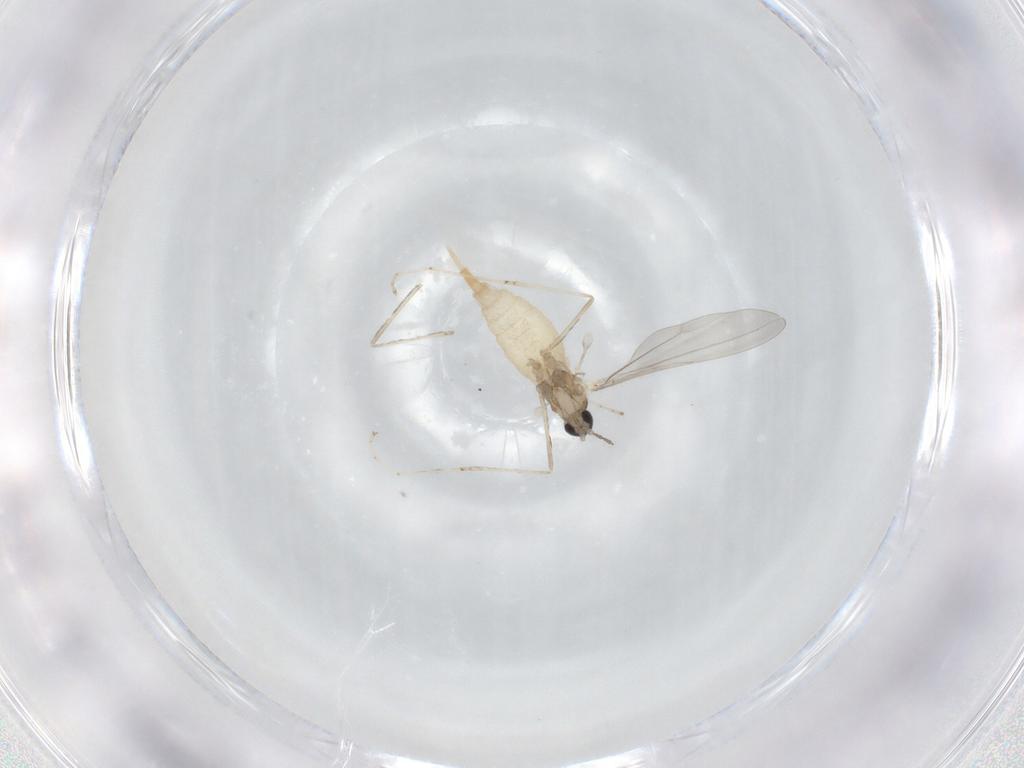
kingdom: Animalia
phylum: Arthropoda
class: Insecta
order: Diptera
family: Cecidomyiidae
